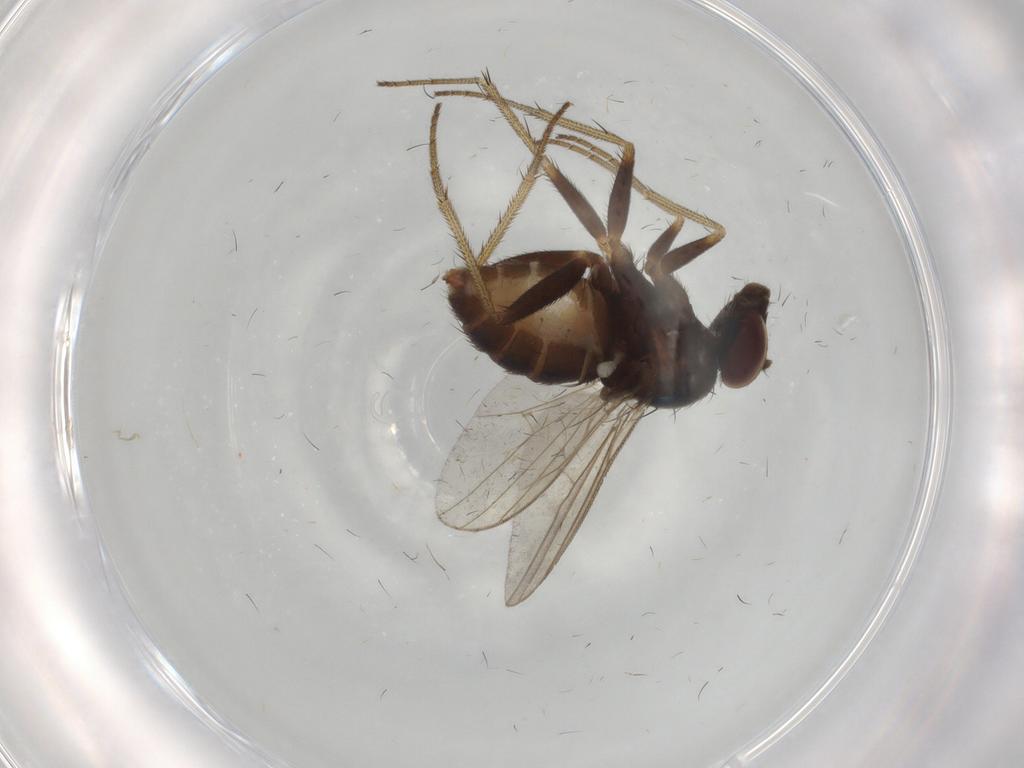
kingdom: Animalia
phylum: Arthropoda
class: Insecta
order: Diptera
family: Dolichopodidae
